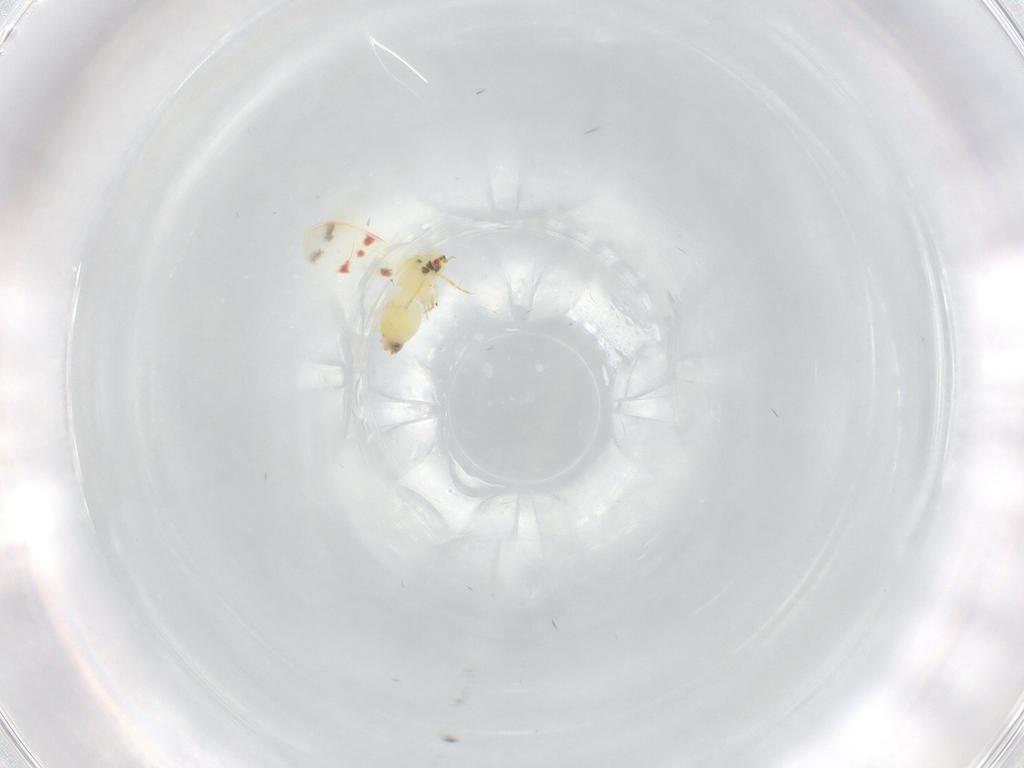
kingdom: Animalia
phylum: Arthropoda
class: Insecta
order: Hemiptera
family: Aleyrodidae
